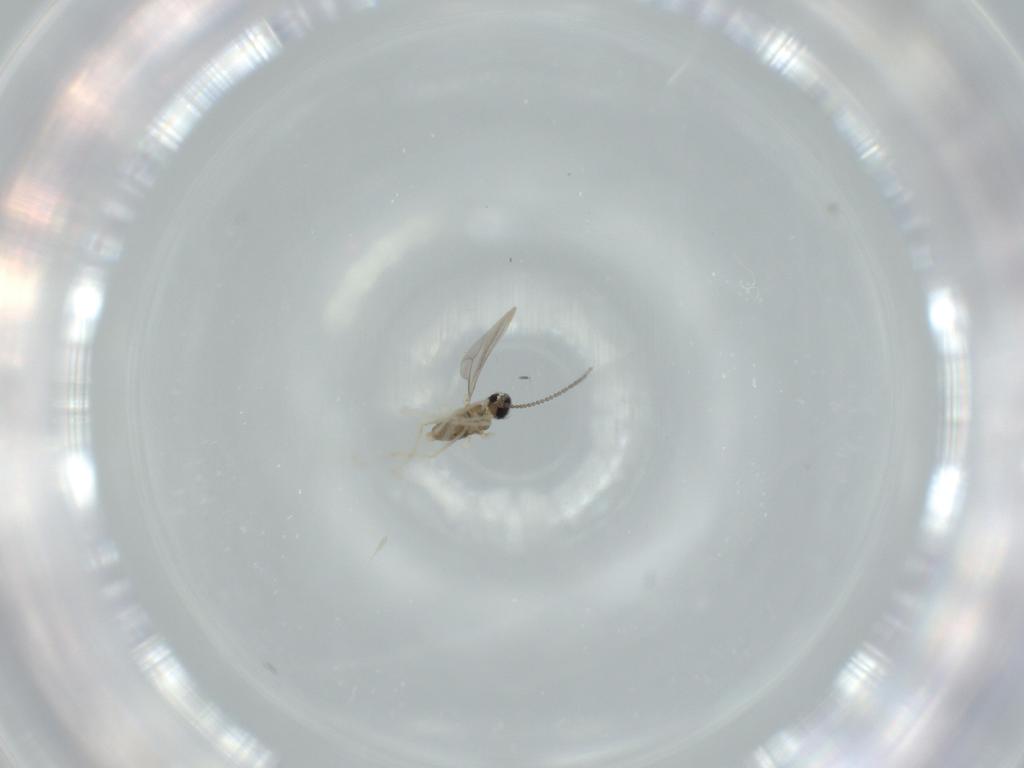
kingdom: Animalia
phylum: Arthropoda
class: Insecta
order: Diptera
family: Cecidomyiidae
